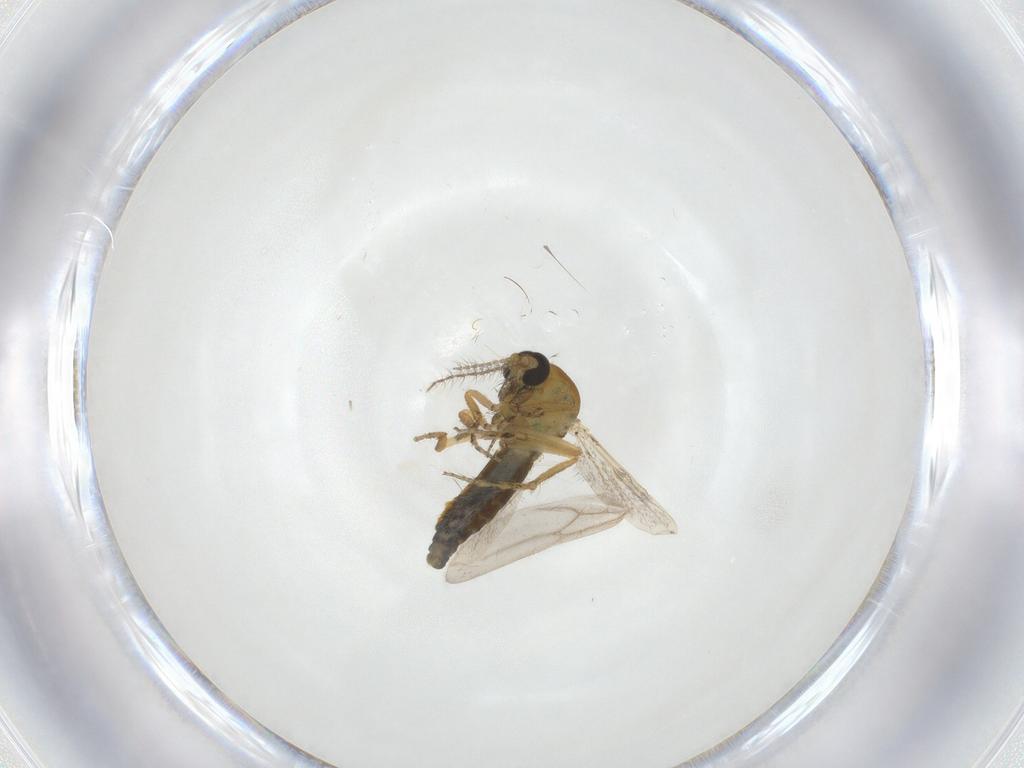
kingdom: Animalia
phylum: Arthropoda
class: Insecta
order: Diptera
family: Ceratopogonidae
